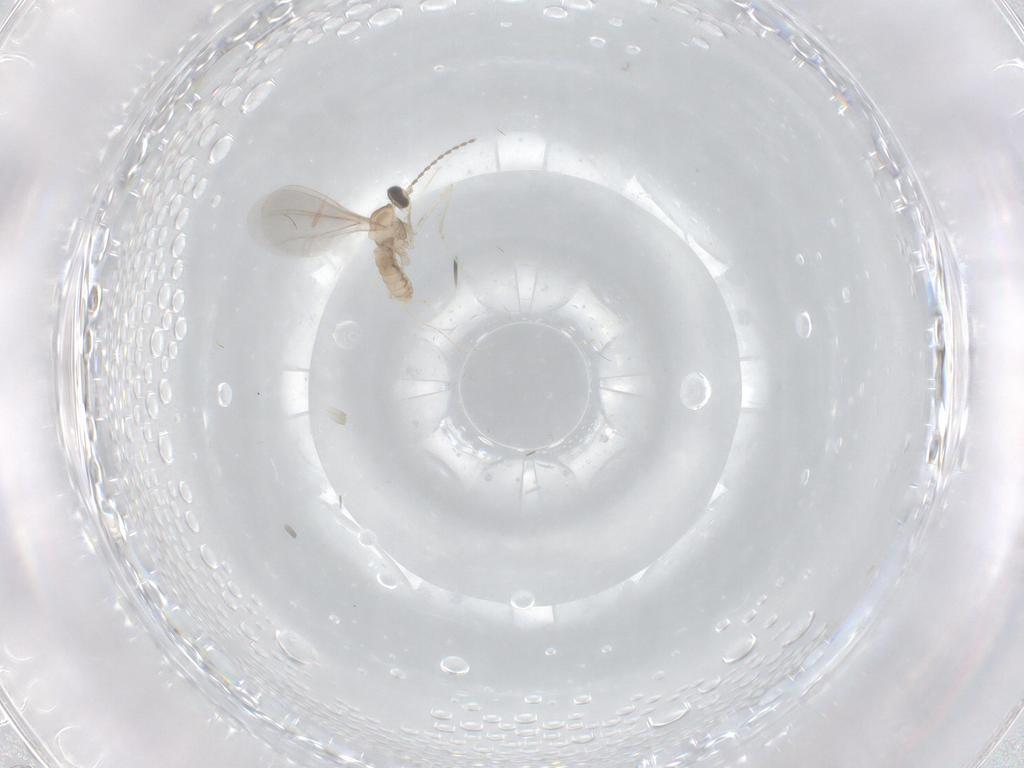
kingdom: Animalia
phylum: Arthropoda
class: Insecta
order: Diptera
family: Cecidomyiidae
